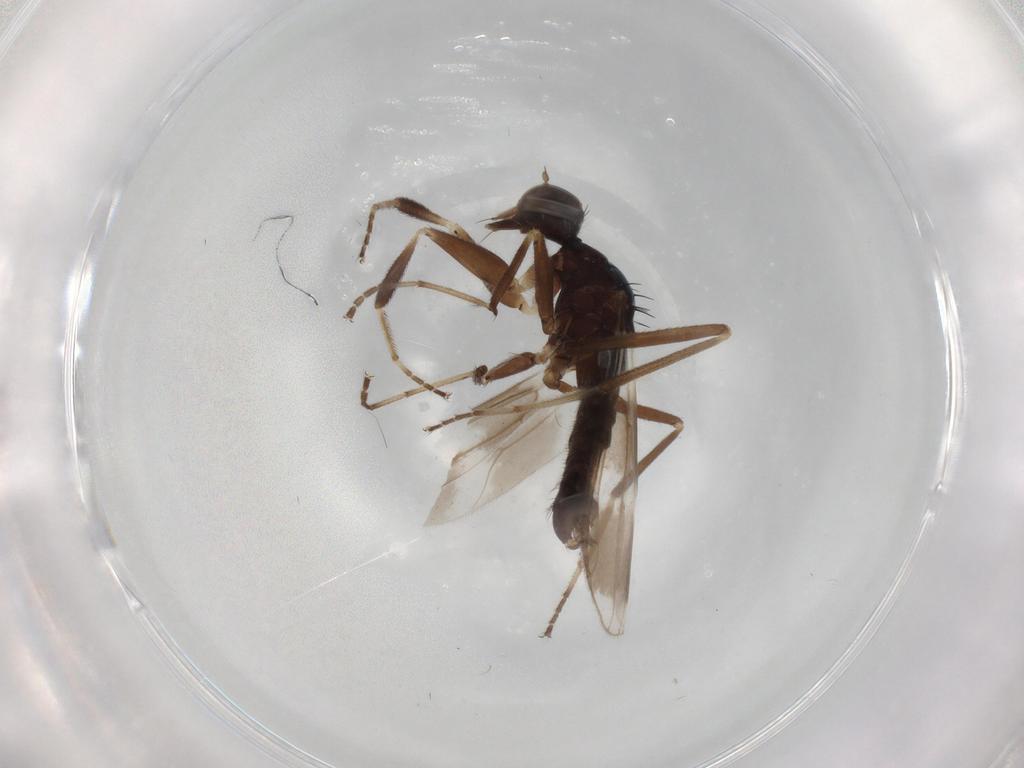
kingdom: Animalia
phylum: Arthropoda
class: Insecta
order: Diptera
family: Hybotidae
